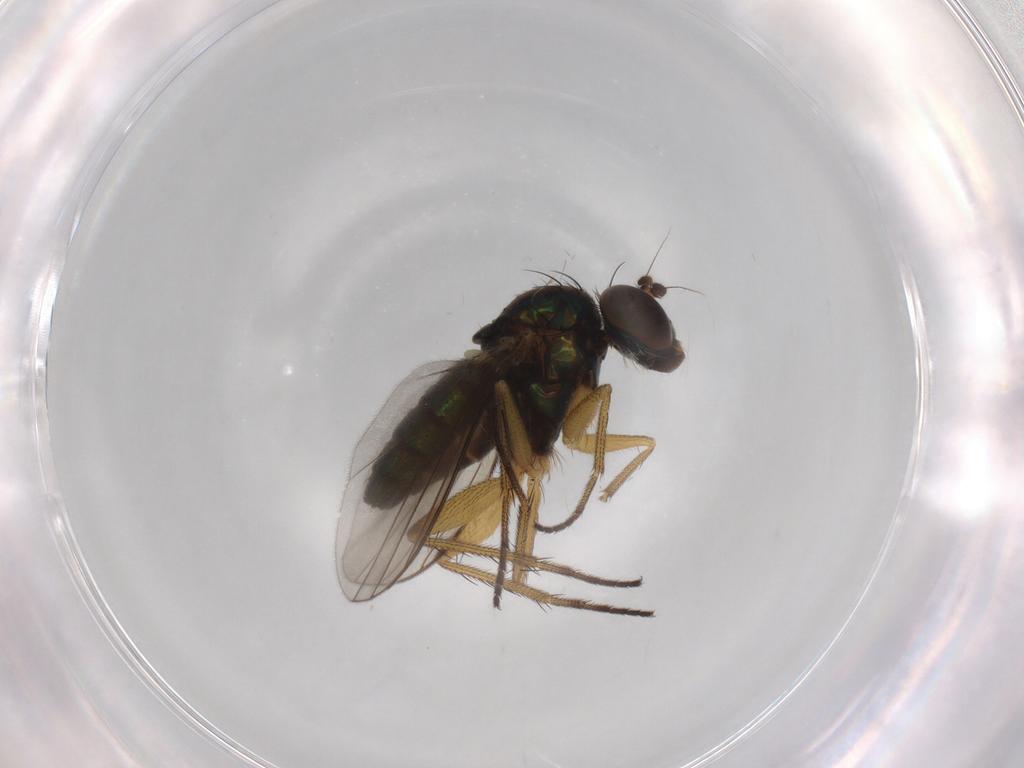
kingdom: Animalia
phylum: Arthropoda
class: Insecta
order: Diptera
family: Dolichopodidae
